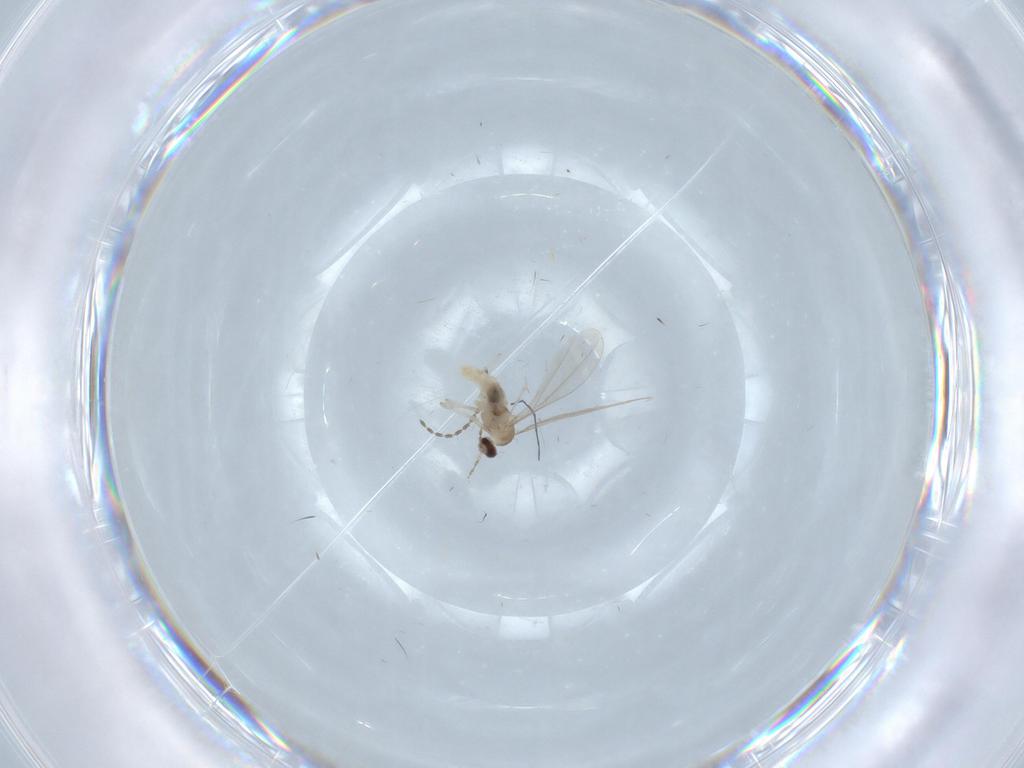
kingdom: Animalia
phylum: Arthropoda
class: Insecta
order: Diptera
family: Cecidomyiidae
